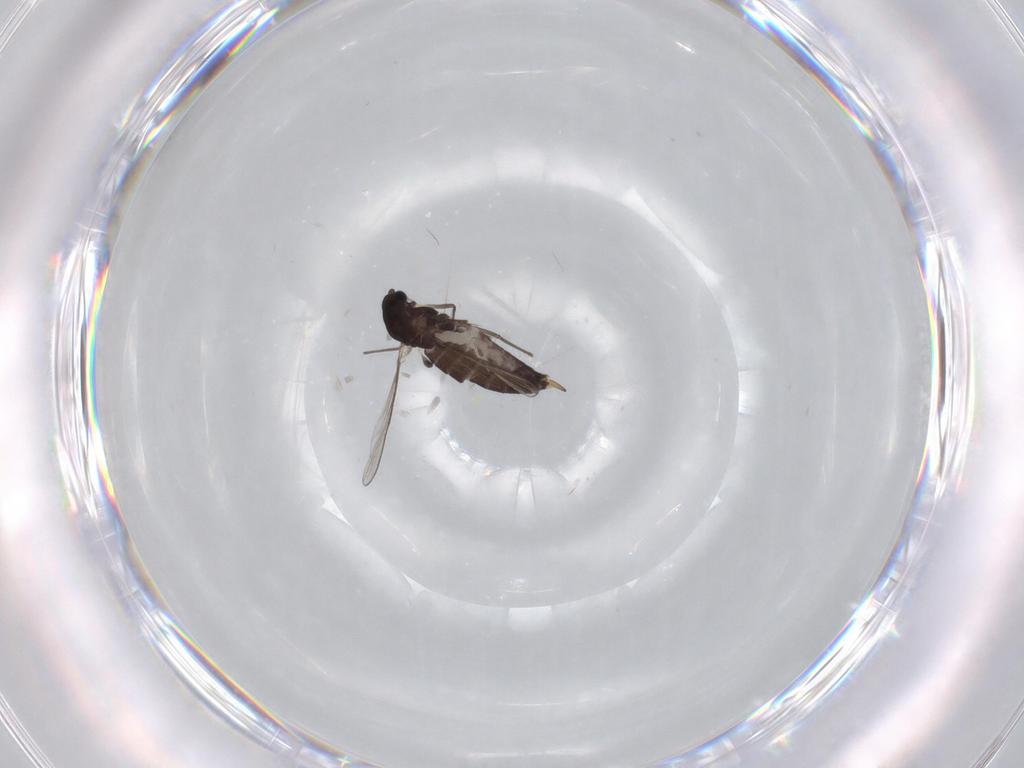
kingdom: Animalia
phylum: Arthropoda
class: Insecta
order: Diptera
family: Chironomidae
